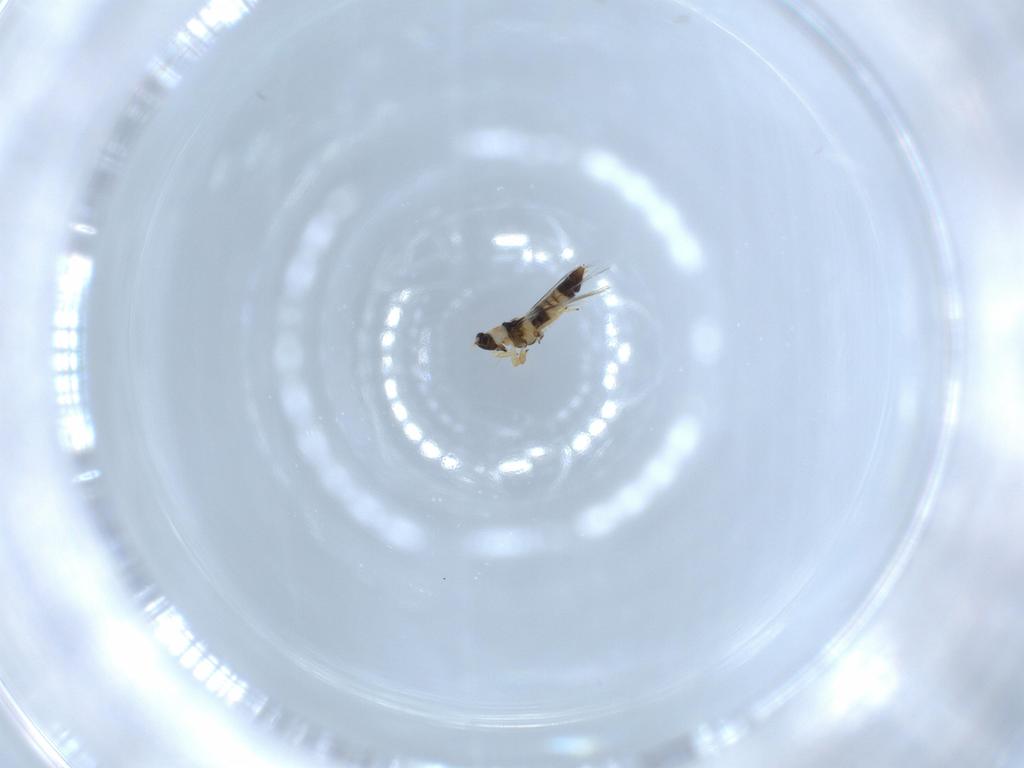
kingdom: Animalia
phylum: Arthropoda
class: Insecta
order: Thysanoptera
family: Thripidae
